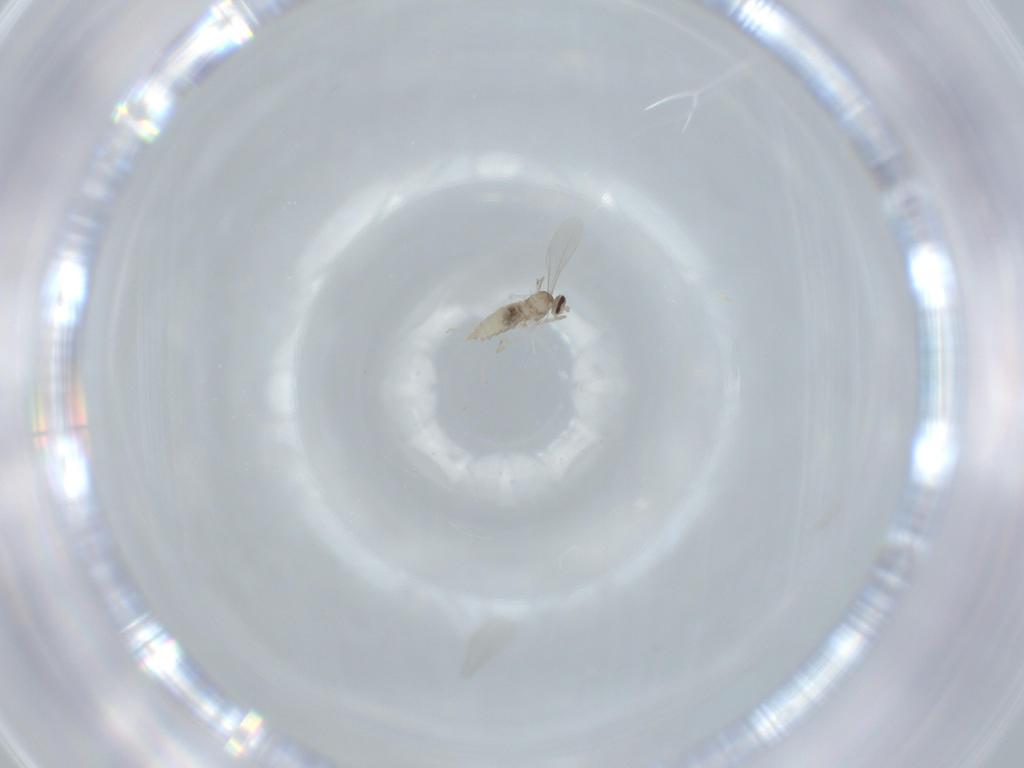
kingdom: Animalia
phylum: Arthropoda
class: Insecta
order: Diptera
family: Cecidomyiidae
